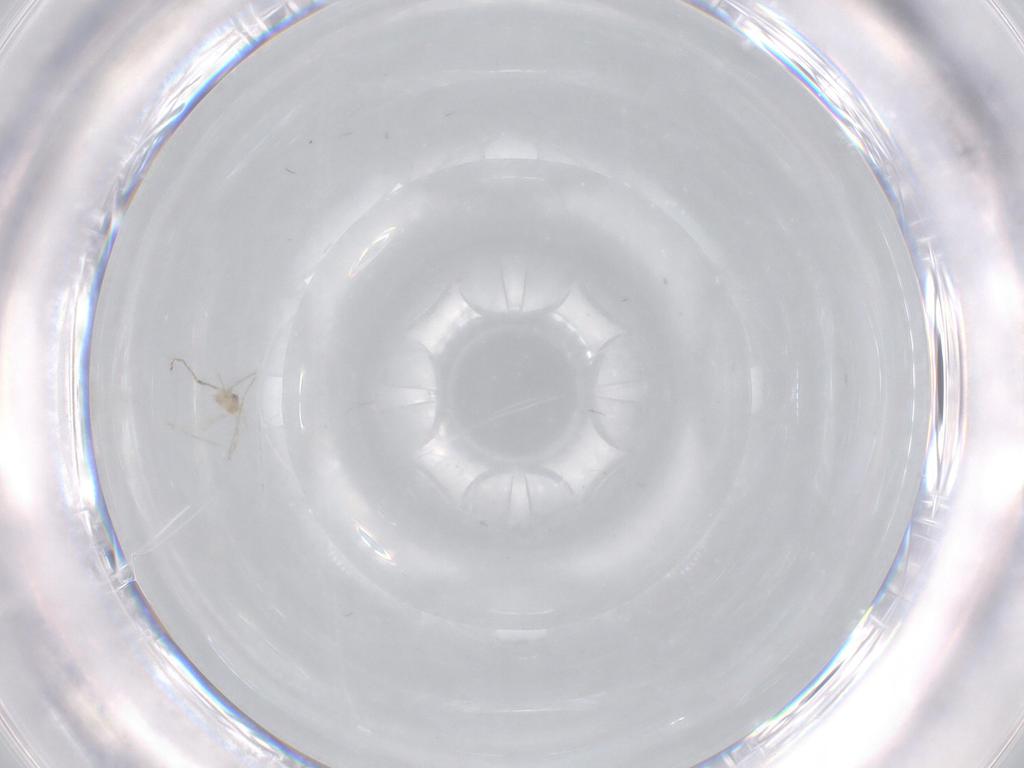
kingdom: Animalia
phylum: Arthropoda
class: Insecta
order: Diptera
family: Cecidomyiidae
